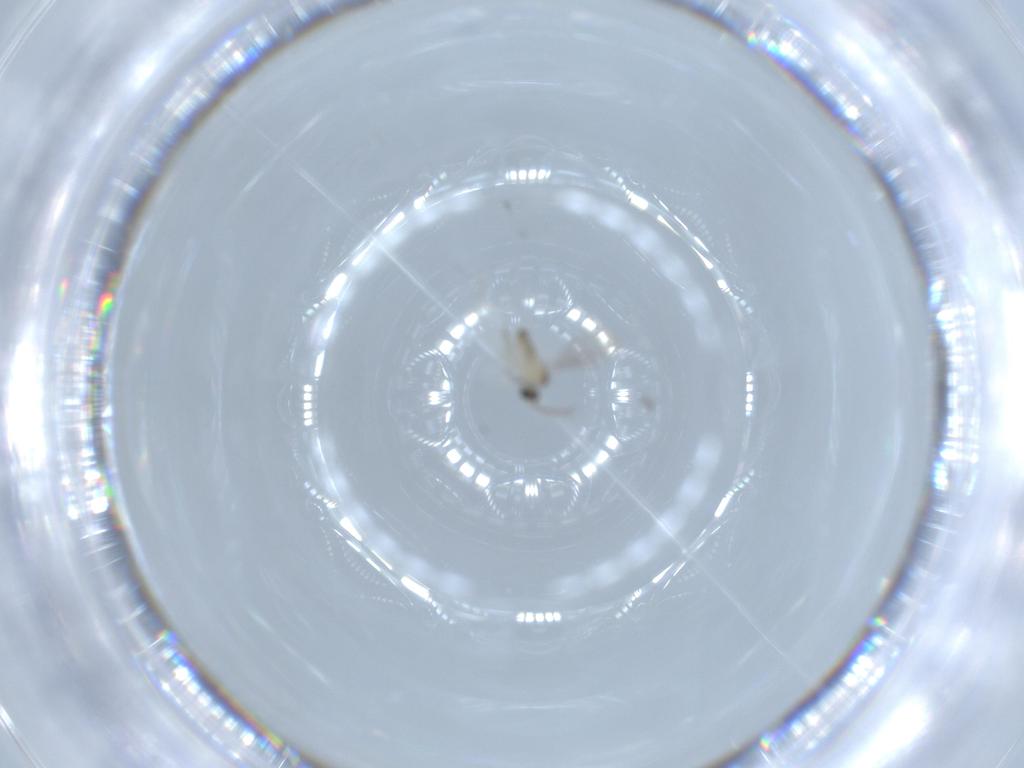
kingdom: Animalia
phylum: Arthropoda
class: Insecta
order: Diptera
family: Cecidomyiidae
